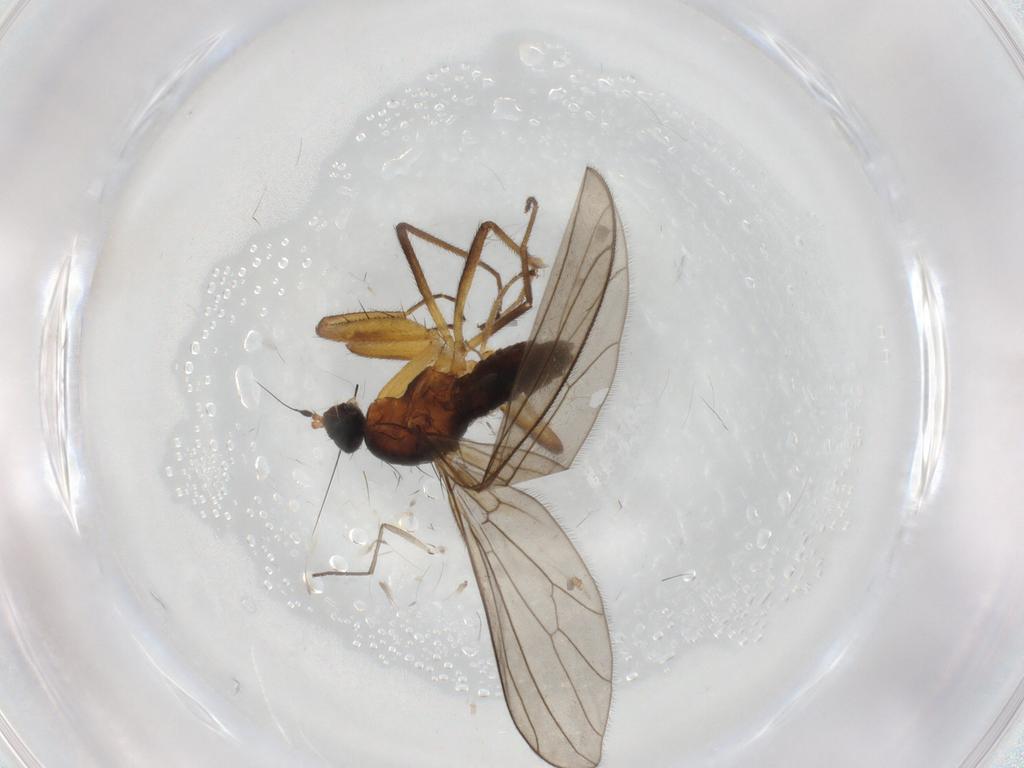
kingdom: Animalia
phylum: Arthropoda
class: Insecta
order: Diptera
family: Empididae
